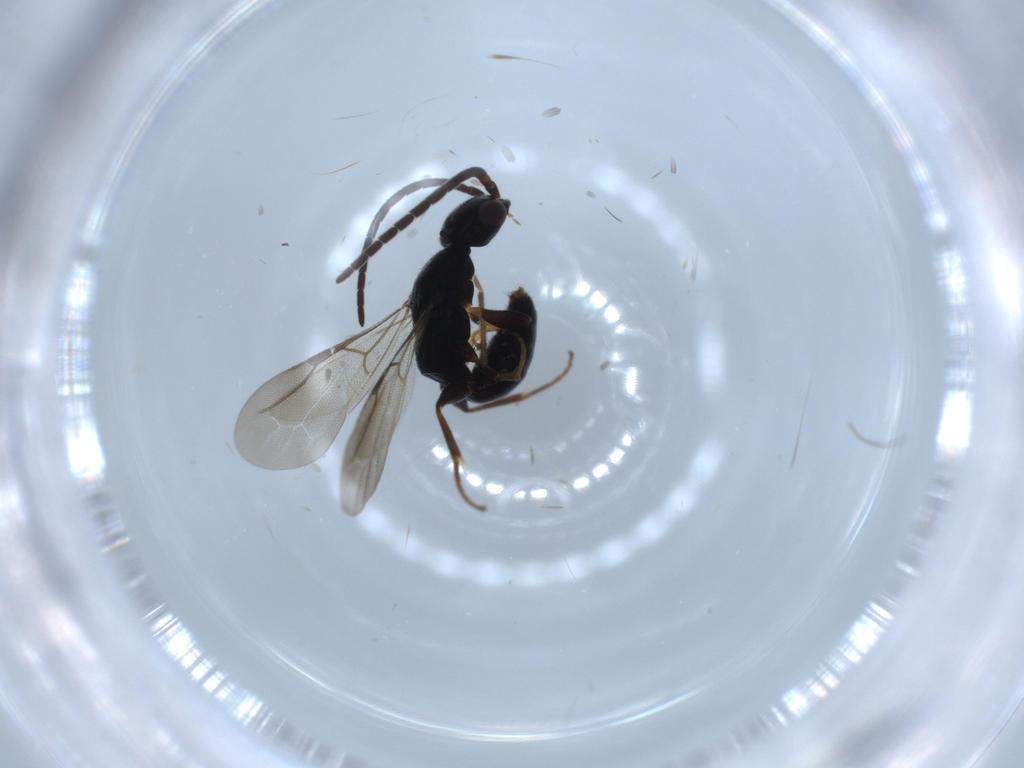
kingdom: Animalia
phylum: Arthropoda
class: Insecta
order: Hymenoptera
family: Bethylidae
